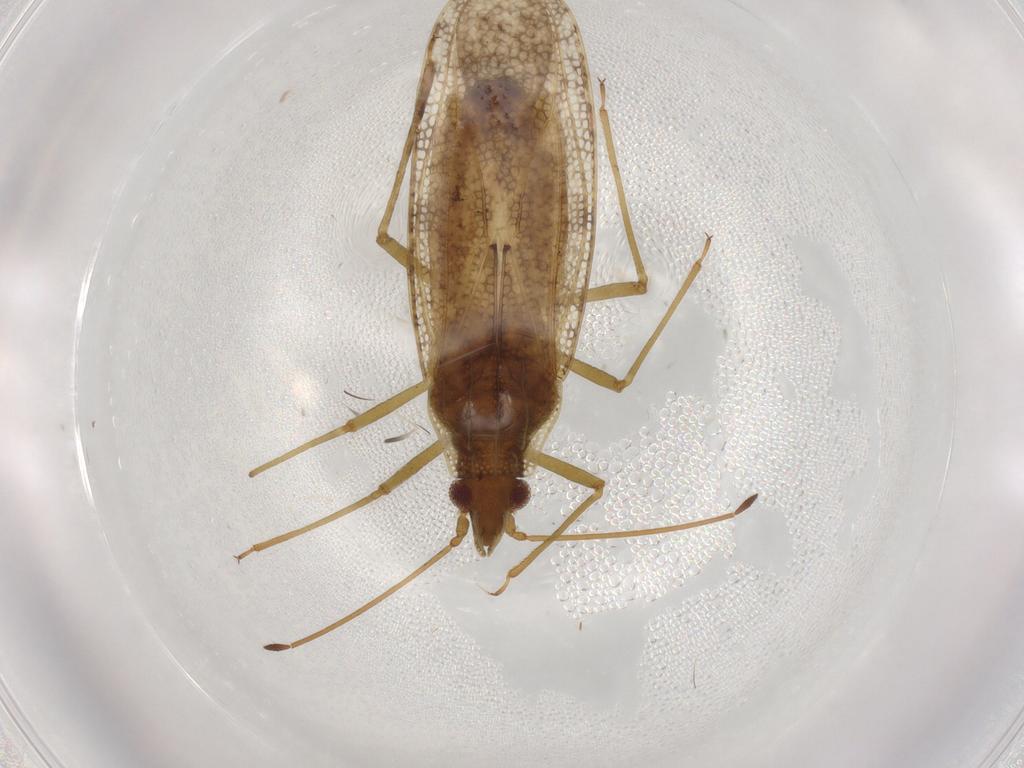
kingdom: Animalia
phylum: Arthropoda
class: Insecta
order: Hemiptera
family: Tingidae
